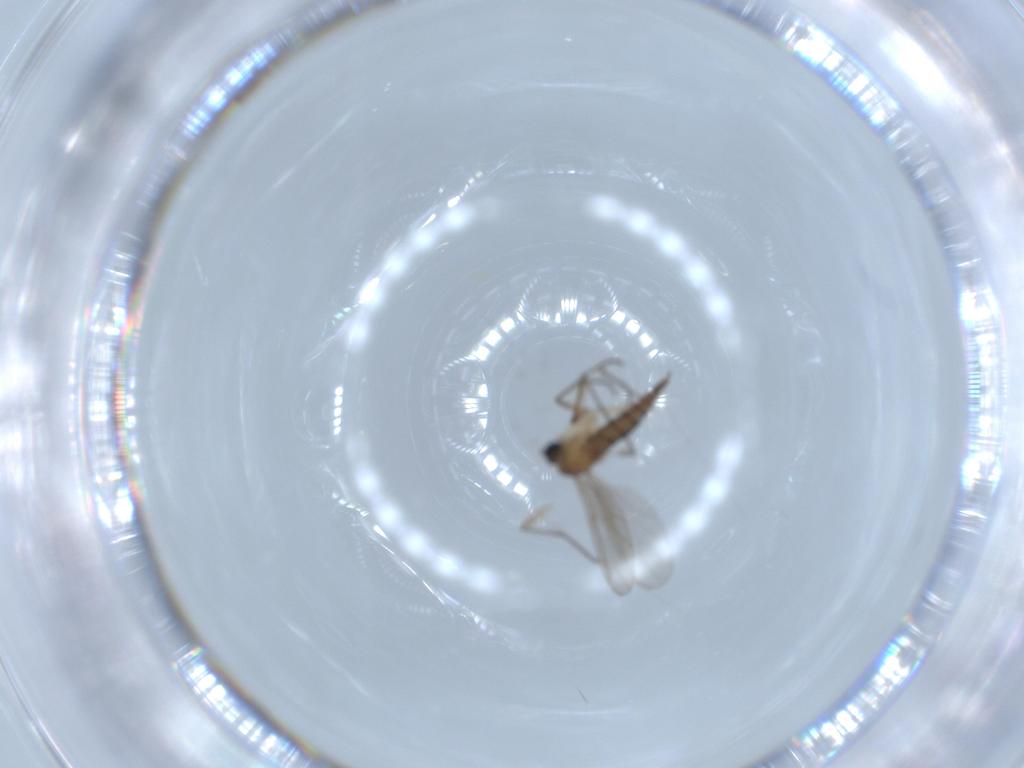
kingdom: Animalia
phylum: Arthropoda
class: Insecta
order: Diptera
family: Sciaridae
